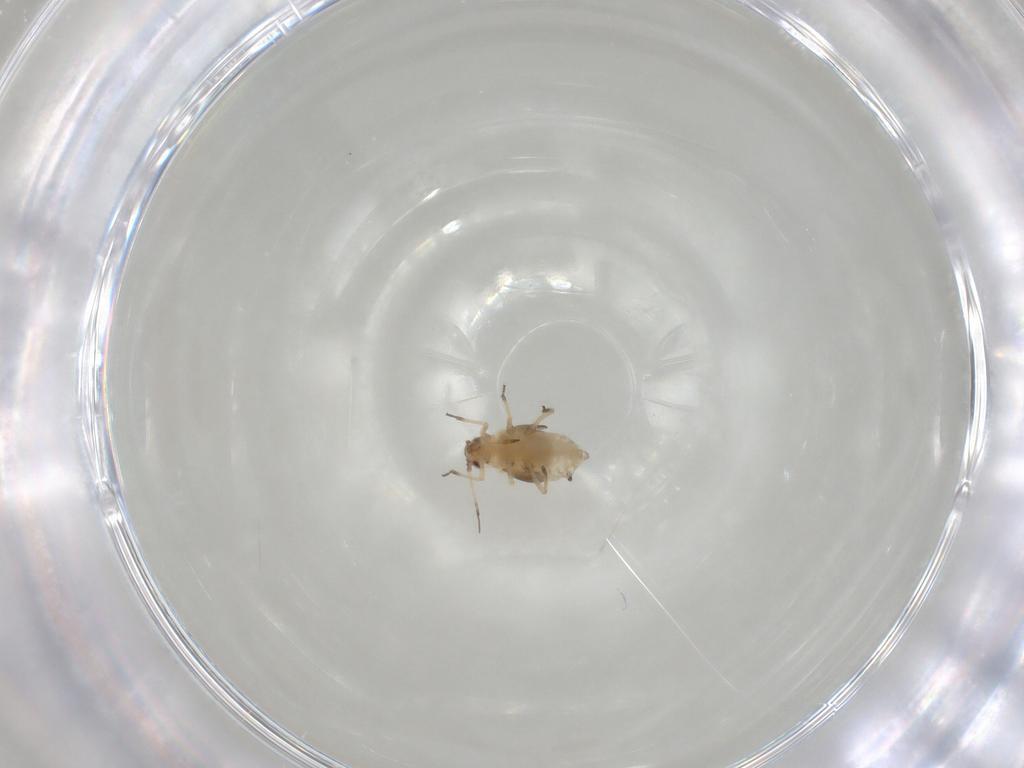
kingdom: Animalia
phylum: Arthropoda
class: Insecta
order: Hemiptera
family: Aphididae
